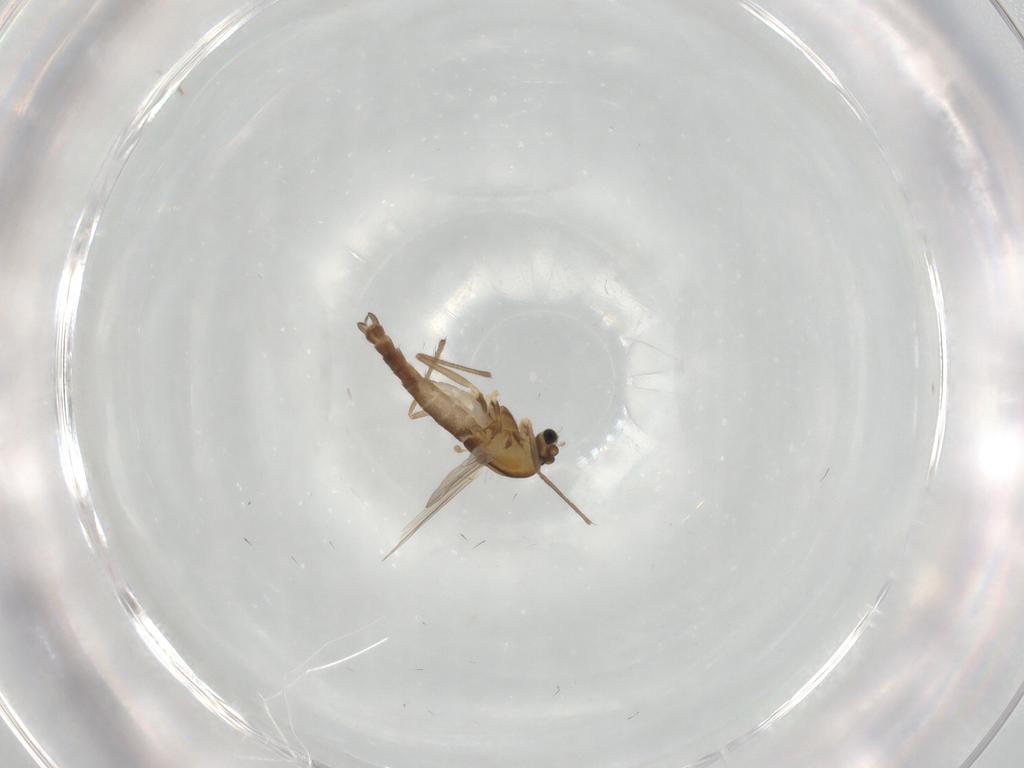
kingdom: Animalia
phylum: Arthropoda
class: Insecta
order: Diptera
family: Chironomidae
